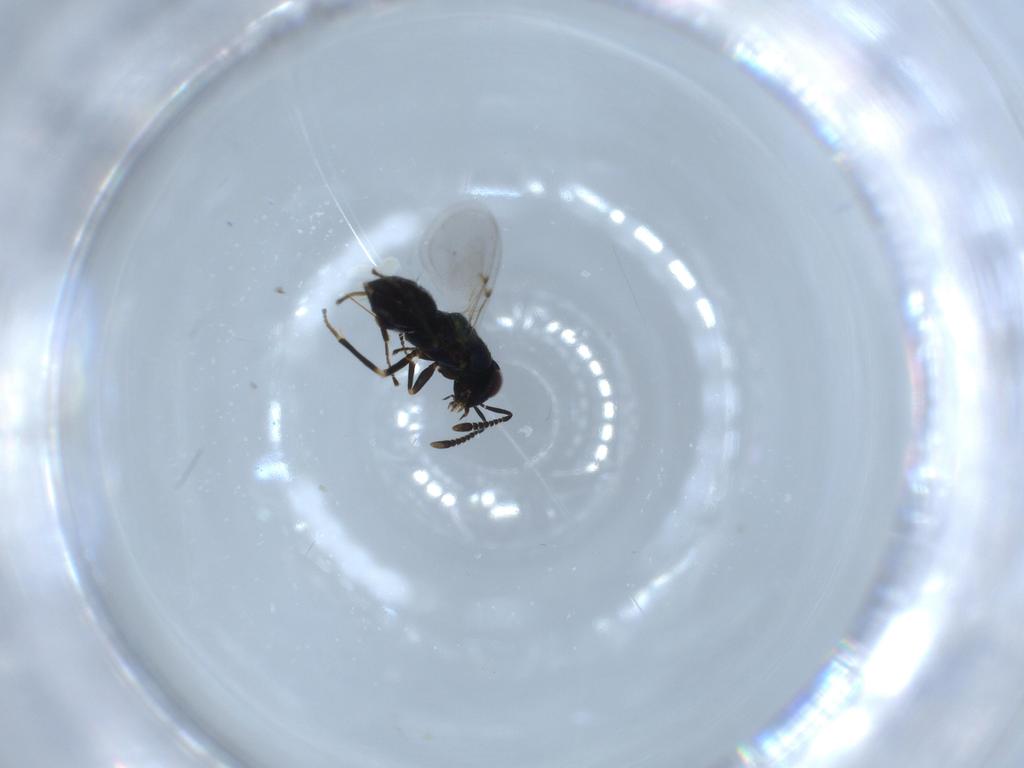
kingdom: Animalia
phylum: Arthropoda
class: Insecta
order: Hymenoptera
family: Encyrtidae
